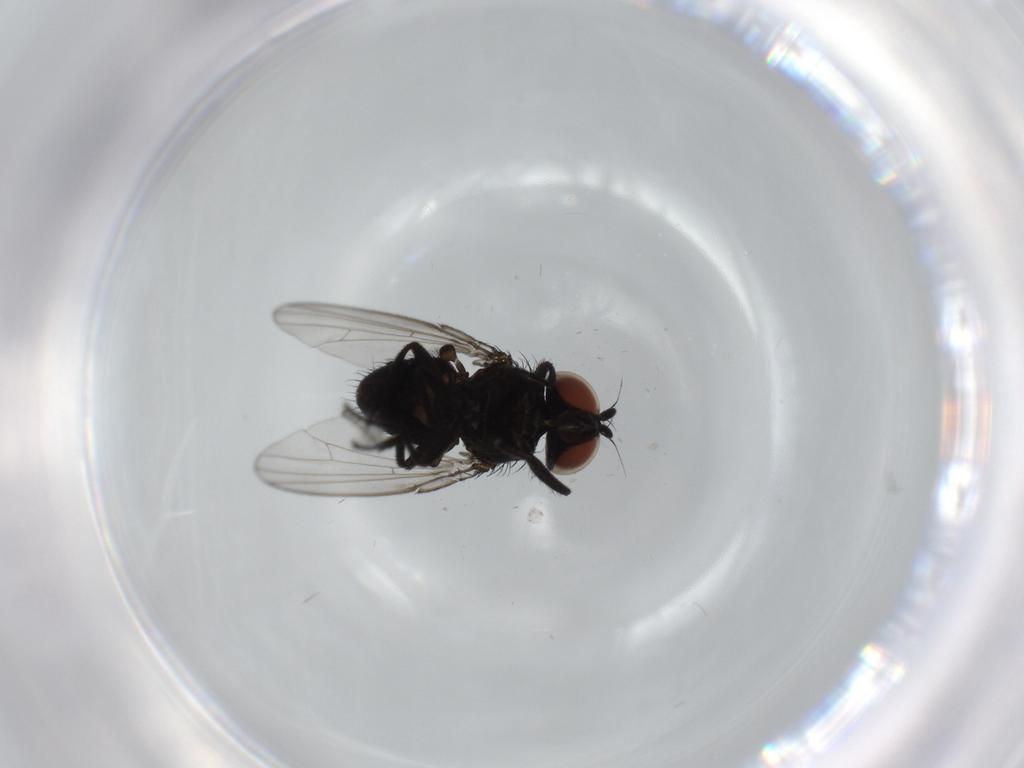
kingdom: Animalia
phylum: Arthropoda
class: Insecta
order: Diptera
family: Milichiidae
